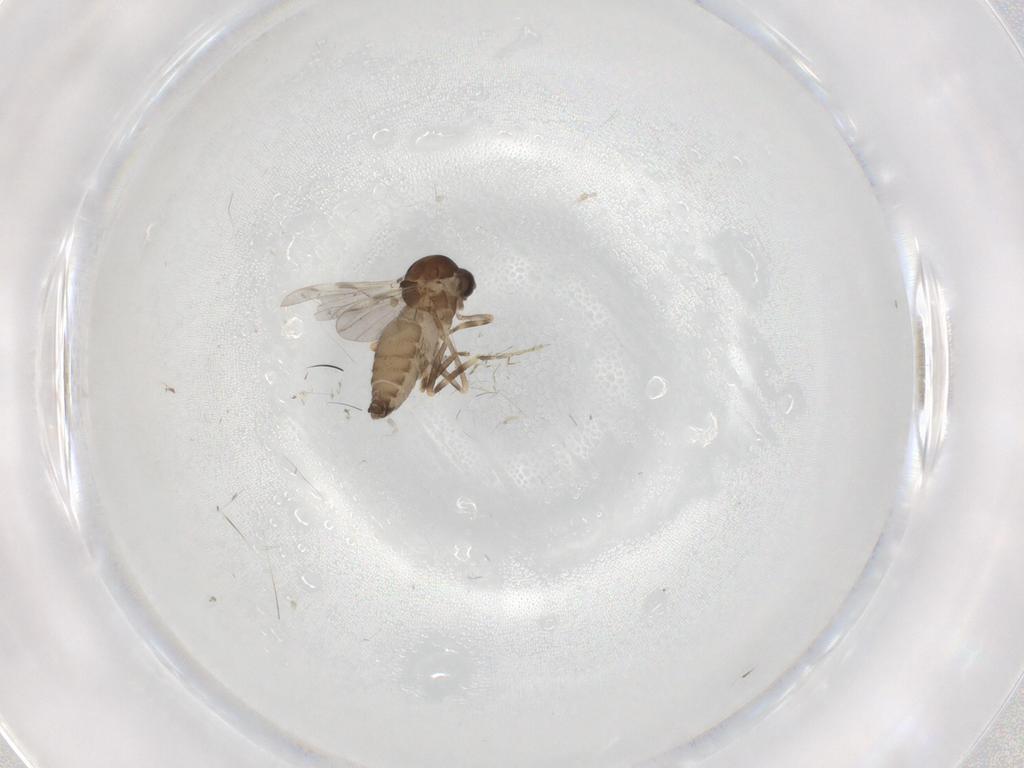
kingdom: Animalia
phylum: Arthropoda
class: Insecta
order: Diptera
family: Ceratopogonidae
